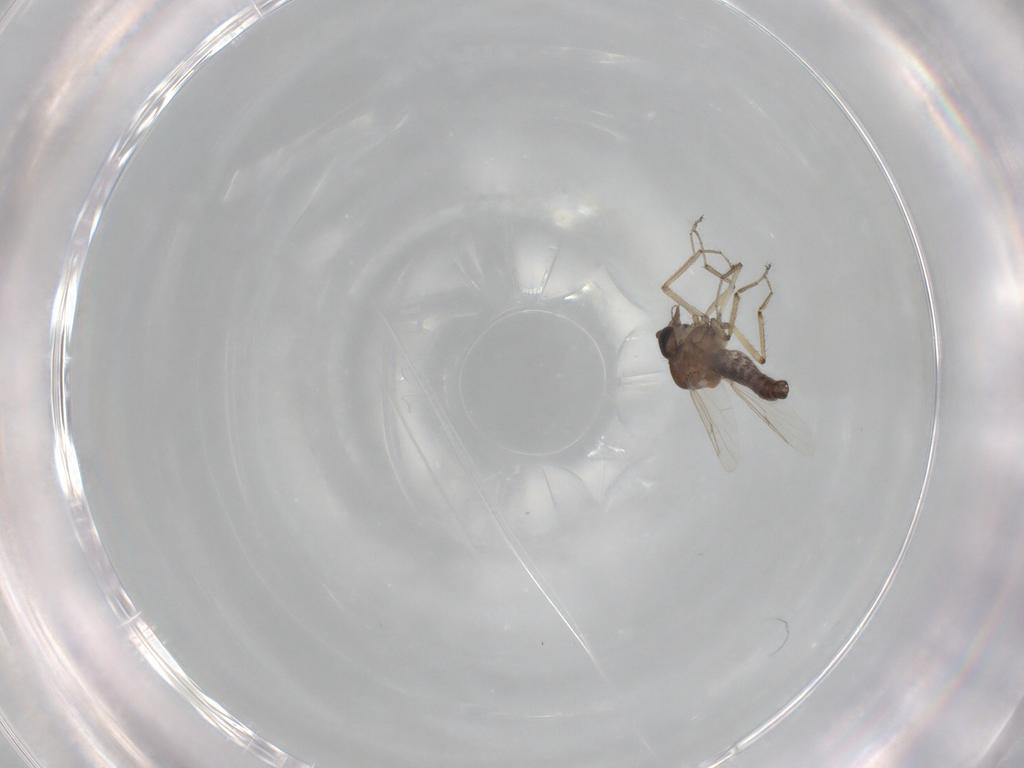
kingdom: Animalia
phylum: Arthropoda
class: Insecta
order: Diptera
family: Ceratopogonidae
